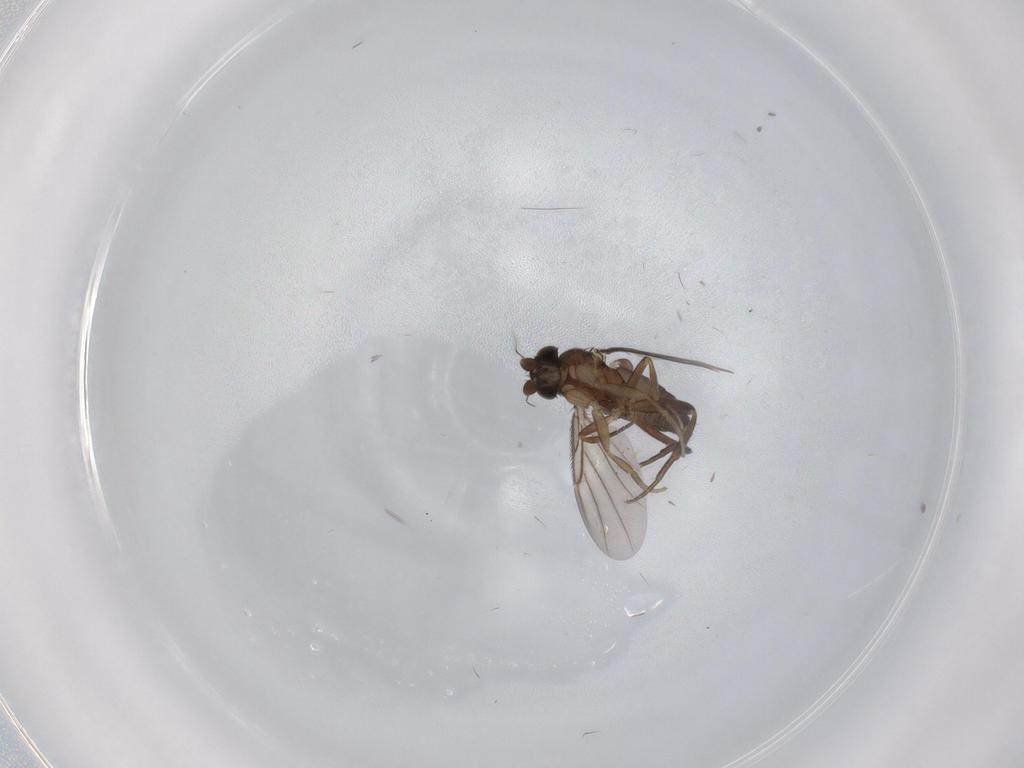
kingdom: Animalia
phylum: Arthropoda
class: Insecta
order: Diptera
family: Phoridae
